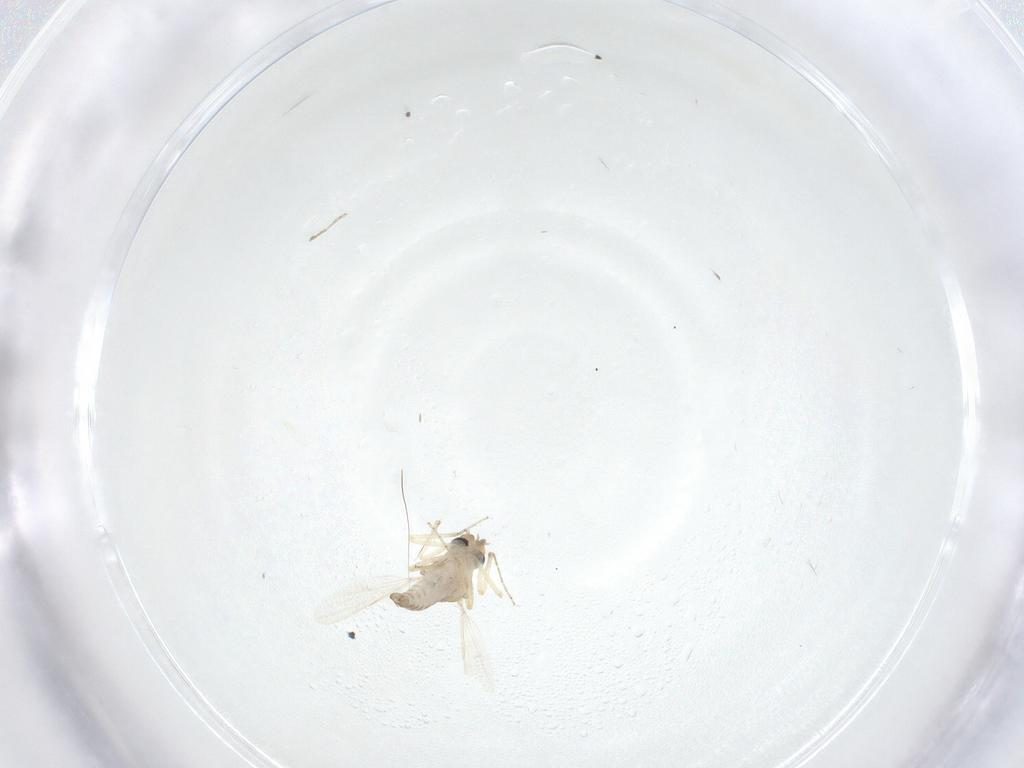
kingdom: Animalia
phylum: Arthropoda
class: Insecta
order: Diptera
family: Ceratopogonidae
